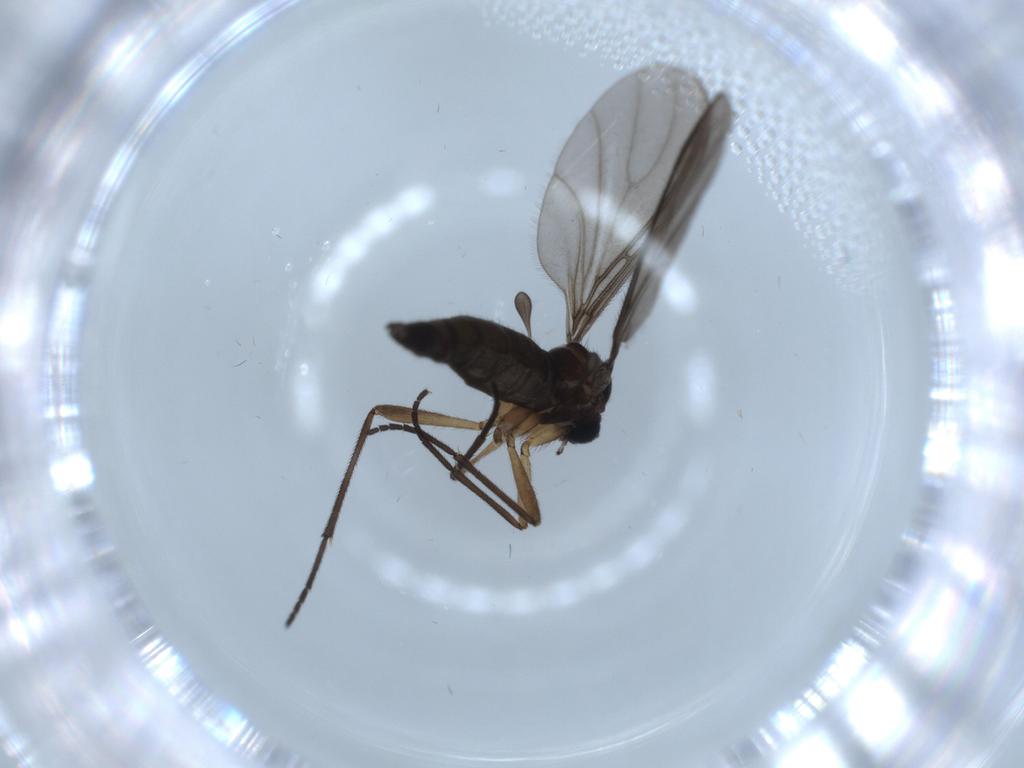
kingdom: Animalia
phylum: Arthropoda
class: Insecta
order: Diptera
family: Sciaridae
